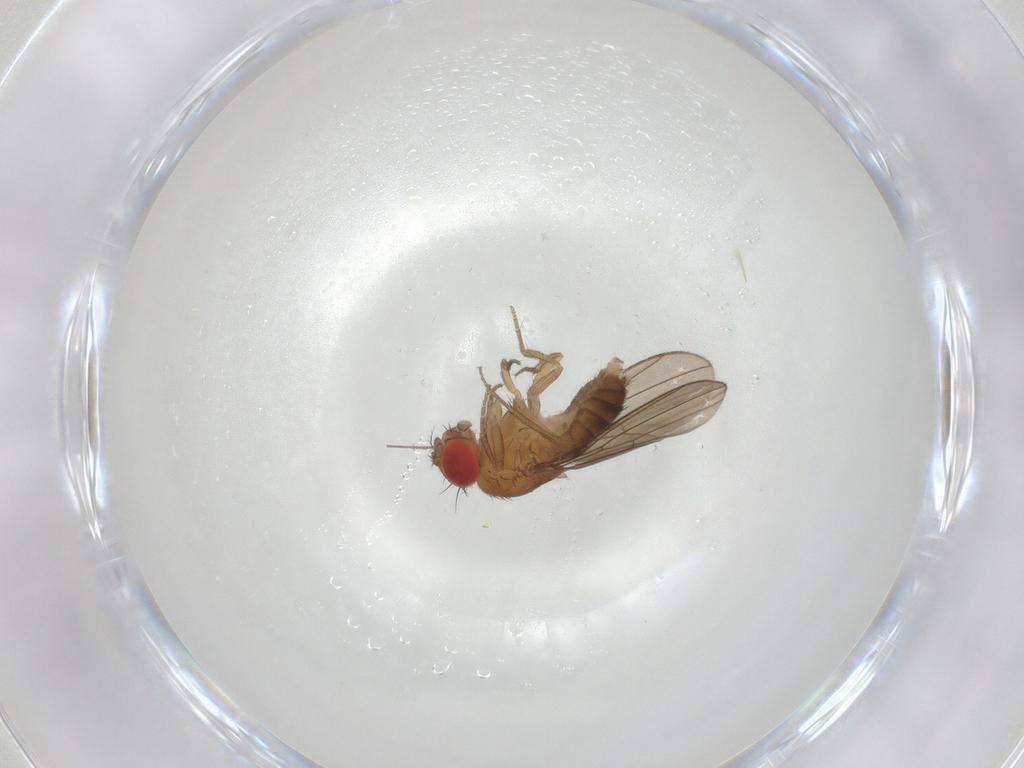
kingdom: Animalia
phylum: Arthropoda
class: Insecta
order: Diptera
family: Drosophilidae
